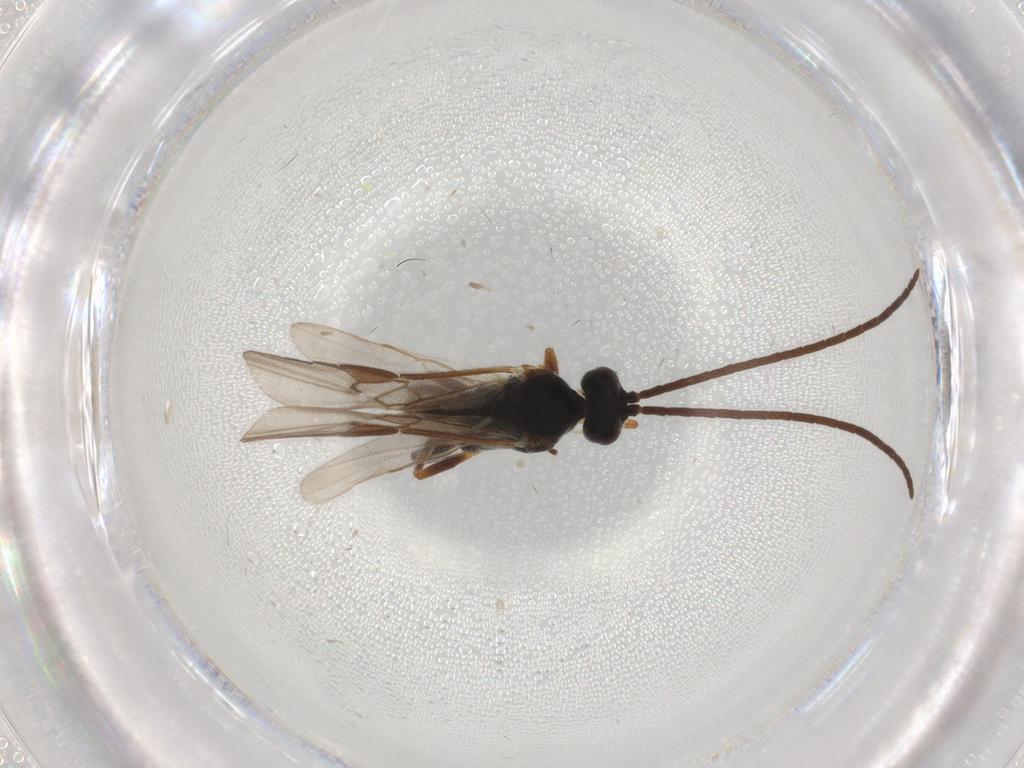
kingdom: Animalia
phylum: Arthropoda
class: Insecta
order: Hymenoptera
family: Braconidae
